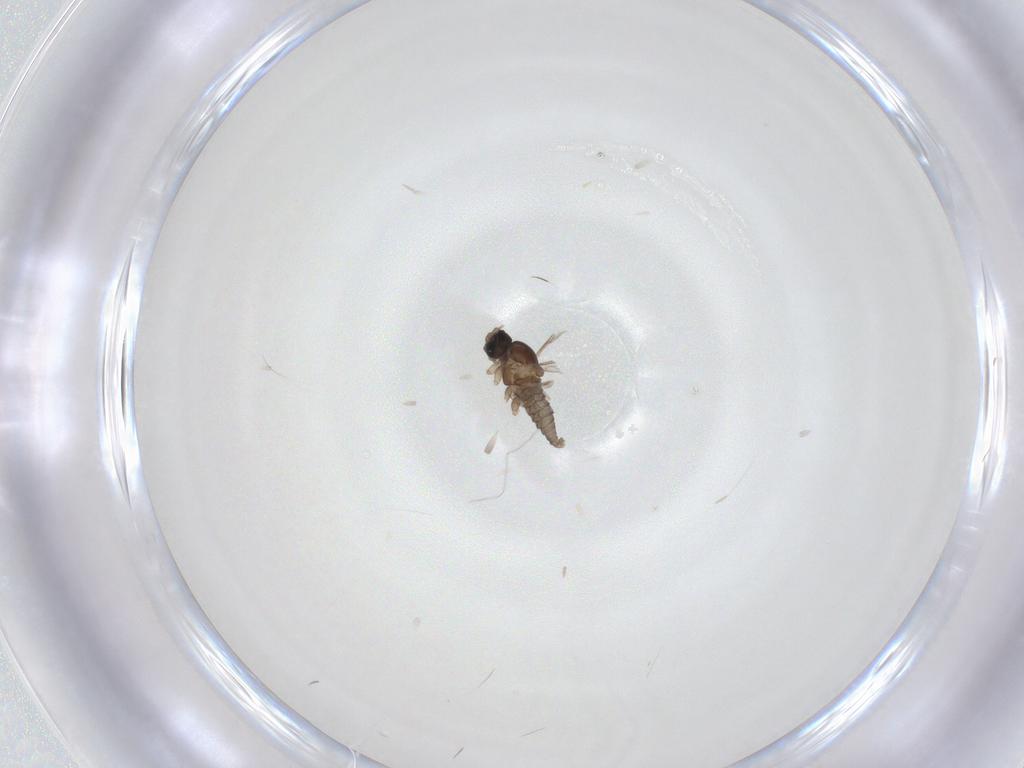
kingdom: Animalia
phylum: Arthropoda
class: Insecta
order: Diptera
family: Cecidomyiidae
